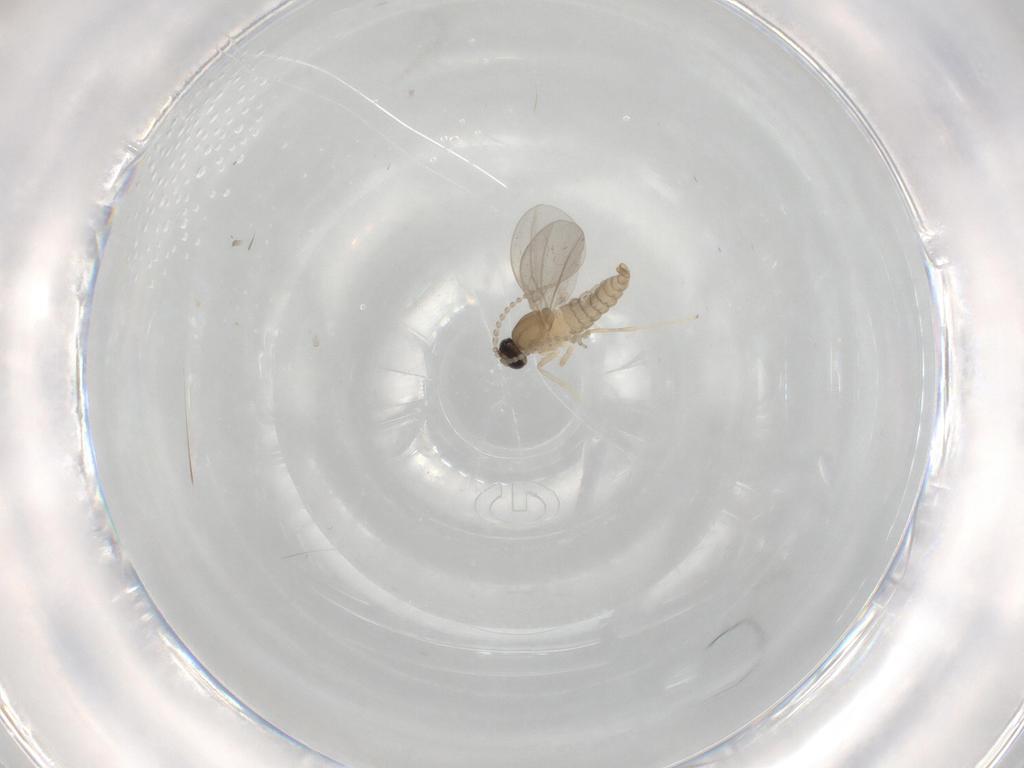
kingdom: Animalia
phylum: Arthropoda
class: Insecta
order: Diptera
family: Cecidomyiidae
